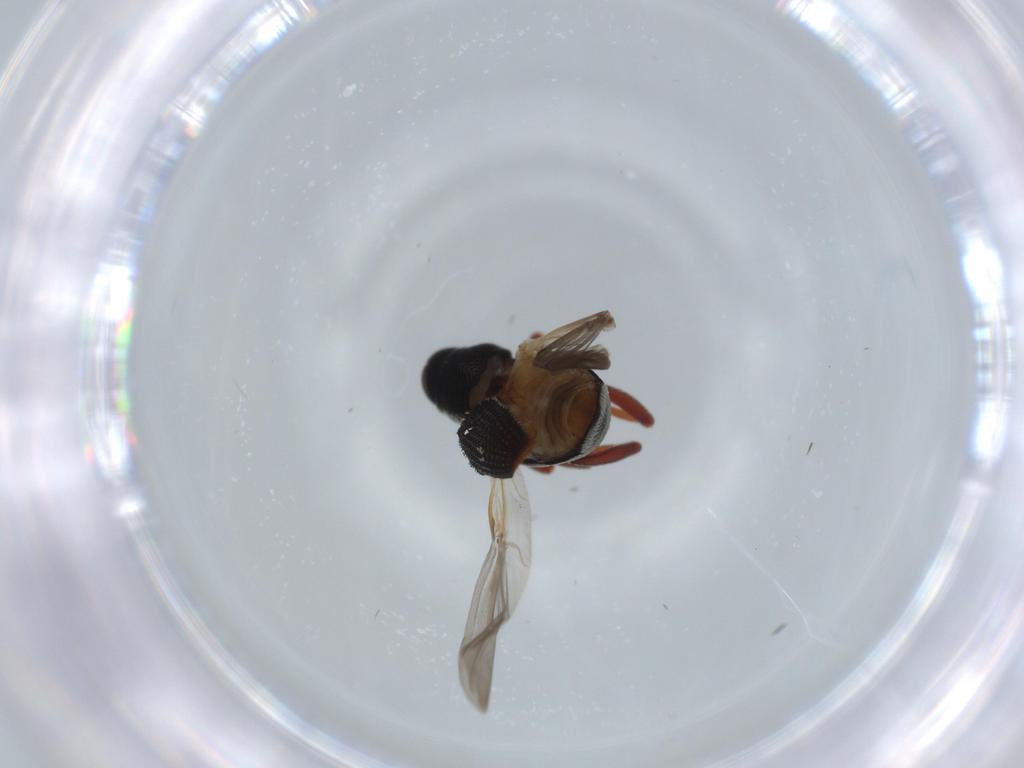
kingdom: Animalia
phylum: Arthropoda
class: Insecta
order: Coleoptera
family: Curculionidae
